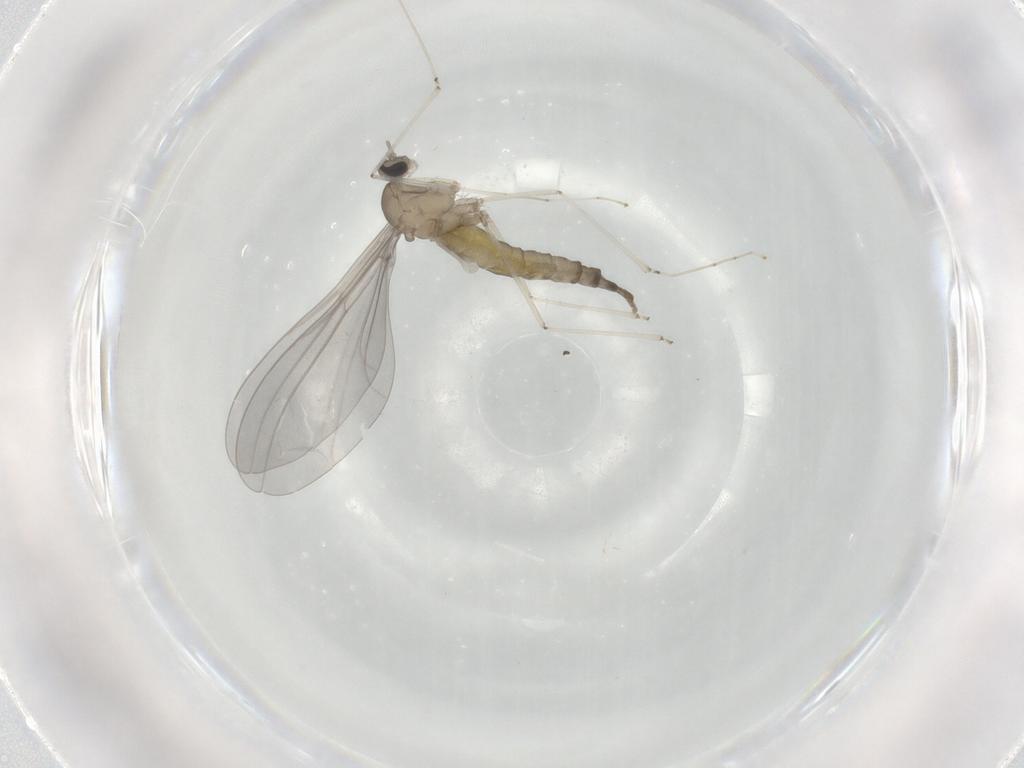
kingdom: Animalia
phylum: Arthropoda
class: Insecta
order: Diptera
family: Cecidomyiidae
